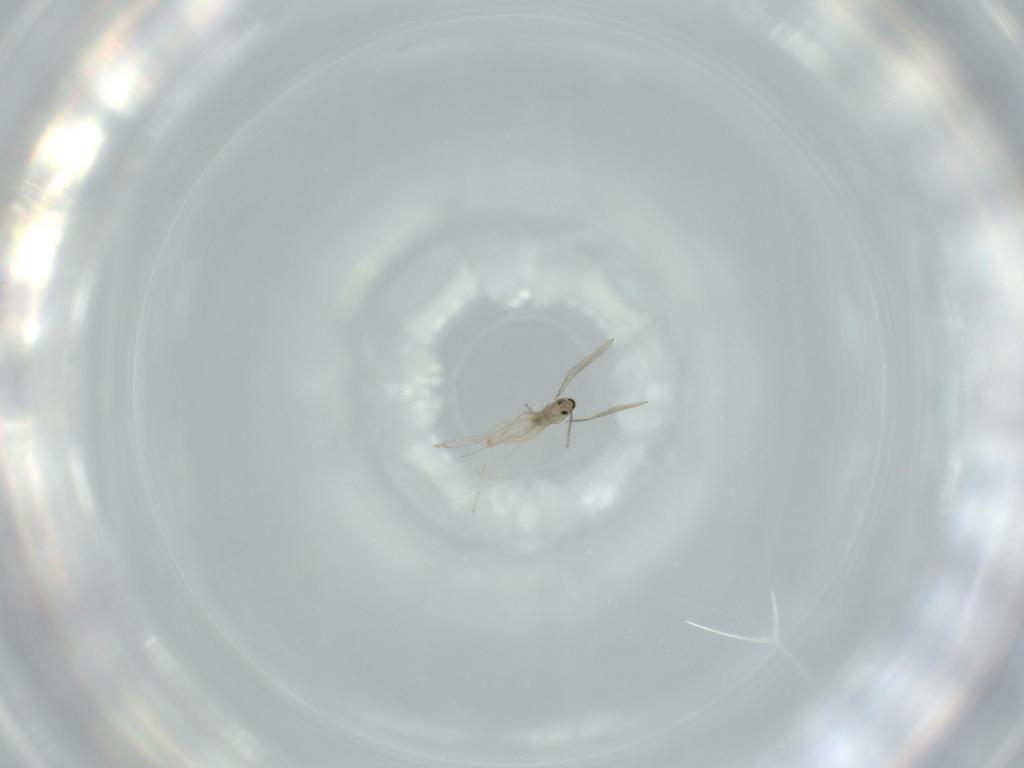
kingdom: Animalia
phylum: Arthropoda
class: Insecta
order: Diptera
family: Cecidomyiidae
